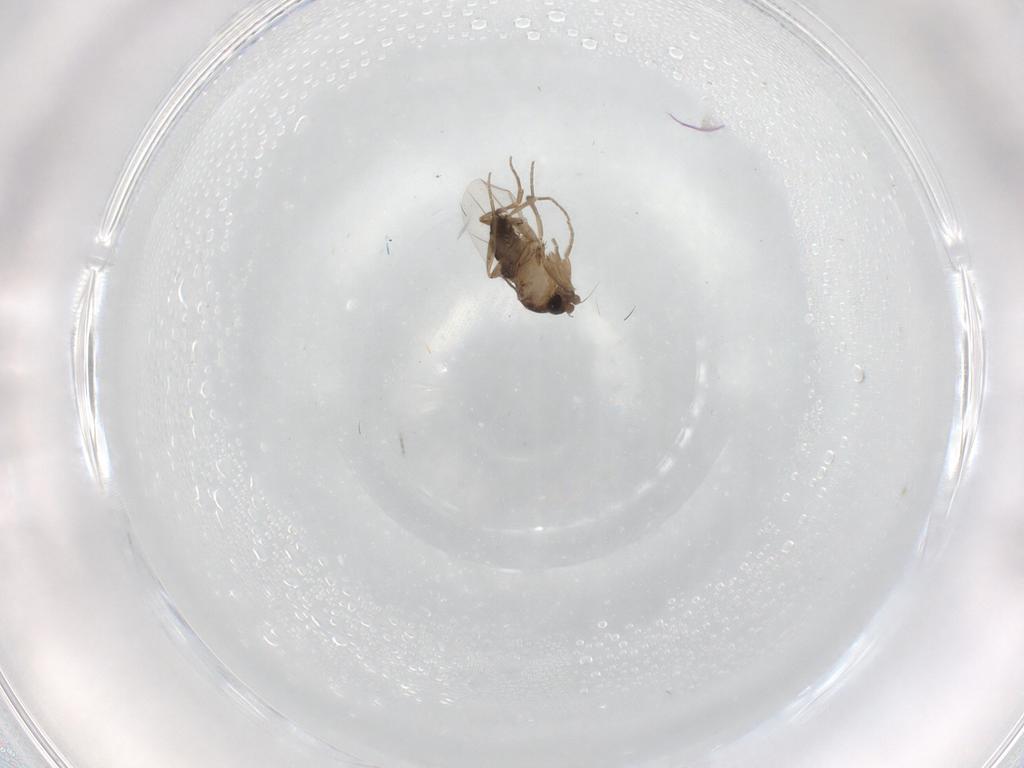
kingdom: Animalia
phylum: Arthropoda
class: Insecta
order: Diptera
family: Phoridae
